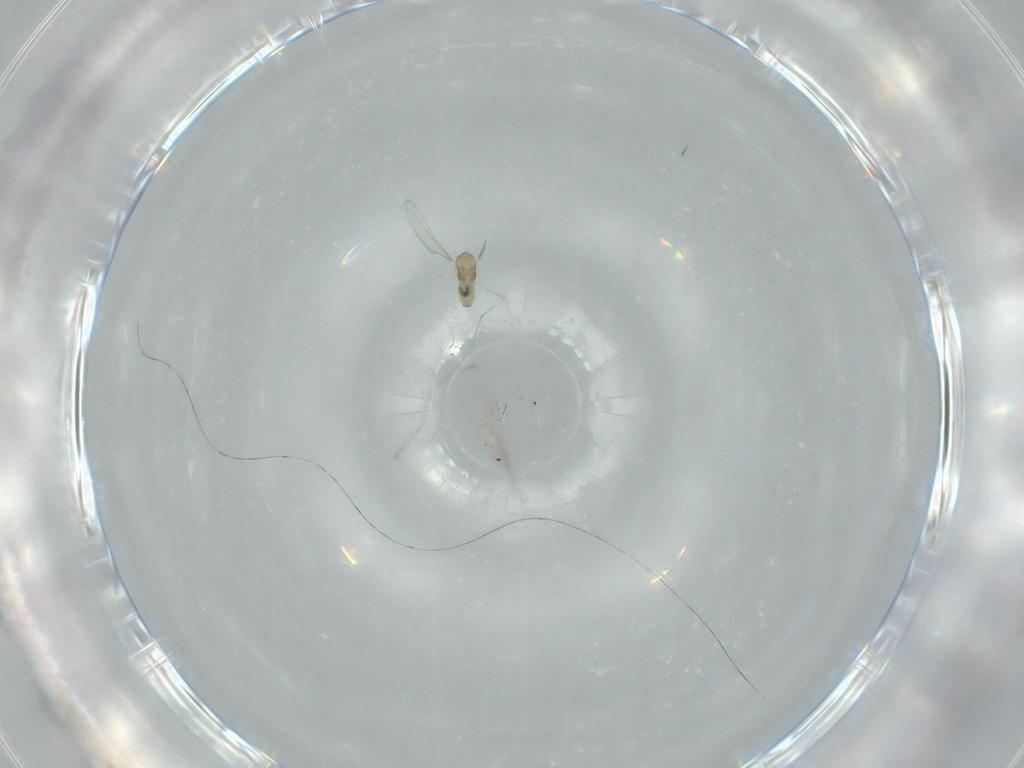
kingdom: Animalia
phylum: Arthropoda
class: Insecta
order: Diptera
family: Cecidomyiidae
